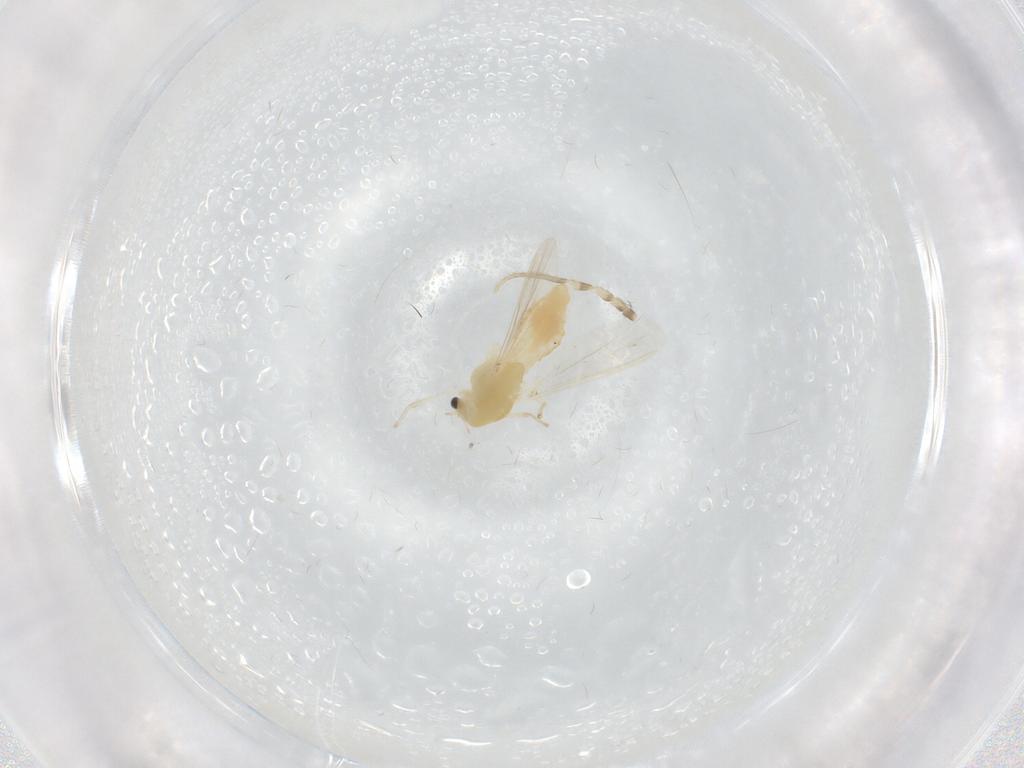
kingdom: Animalia
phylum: Arthropoda
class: Insecta
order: Diptera
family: Chironomidae
